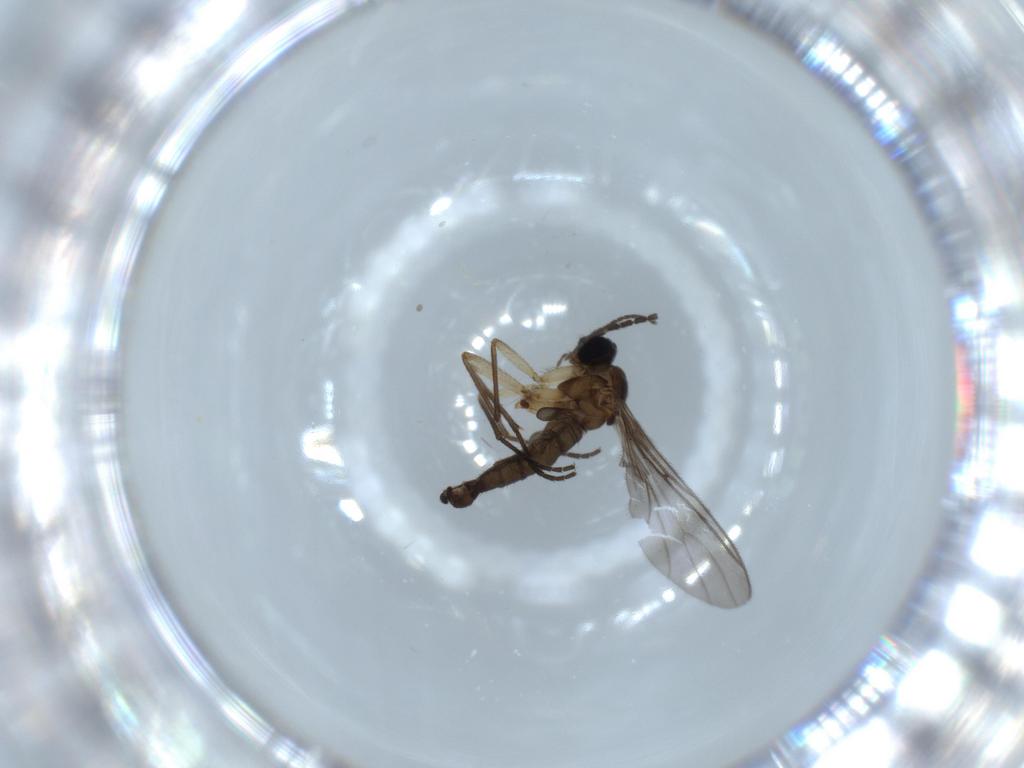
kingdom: Animalia
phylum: Arthropoda
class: Insecta
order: Diptera
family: Sciaridae
